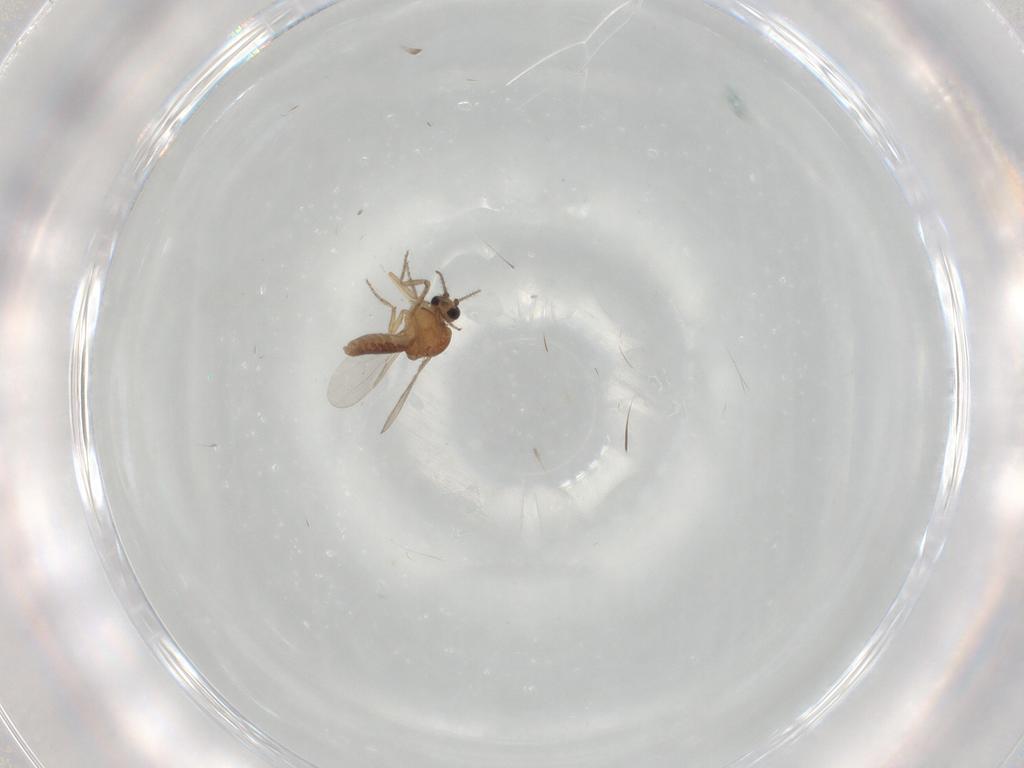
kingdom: Animalia
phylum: Arthropoda
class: Insecta
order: Diptera
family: Ceratopogonidae
